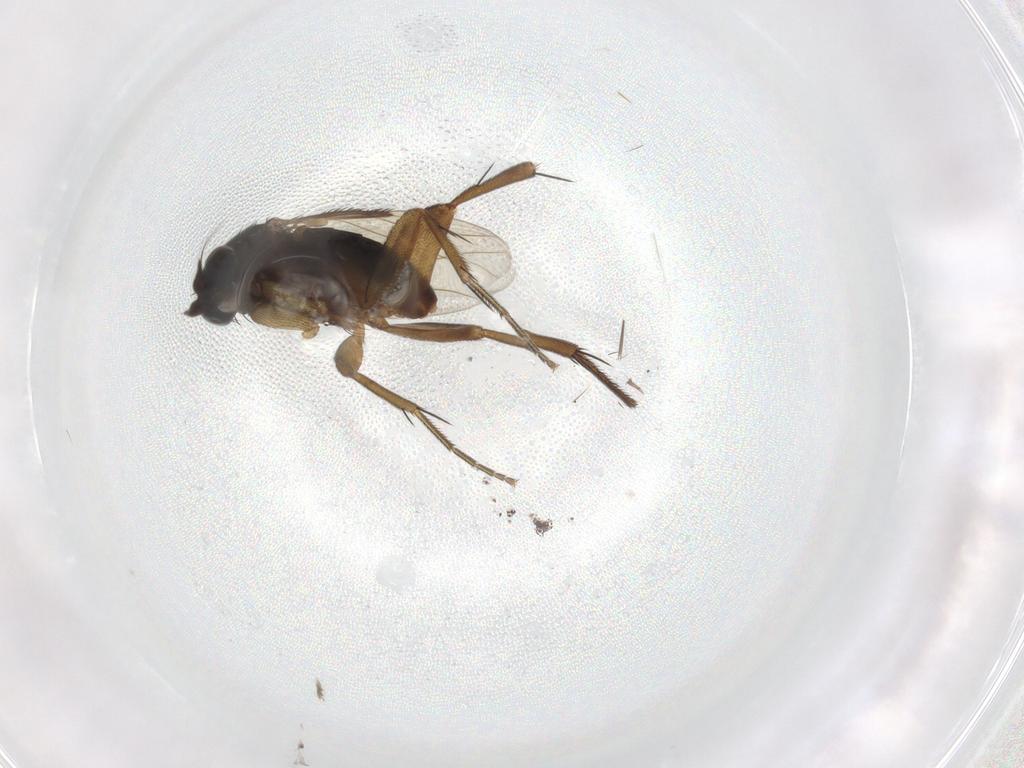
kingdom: Animalia
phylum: Arthropoda
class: Insecta
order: Diptera
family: Phoridae
